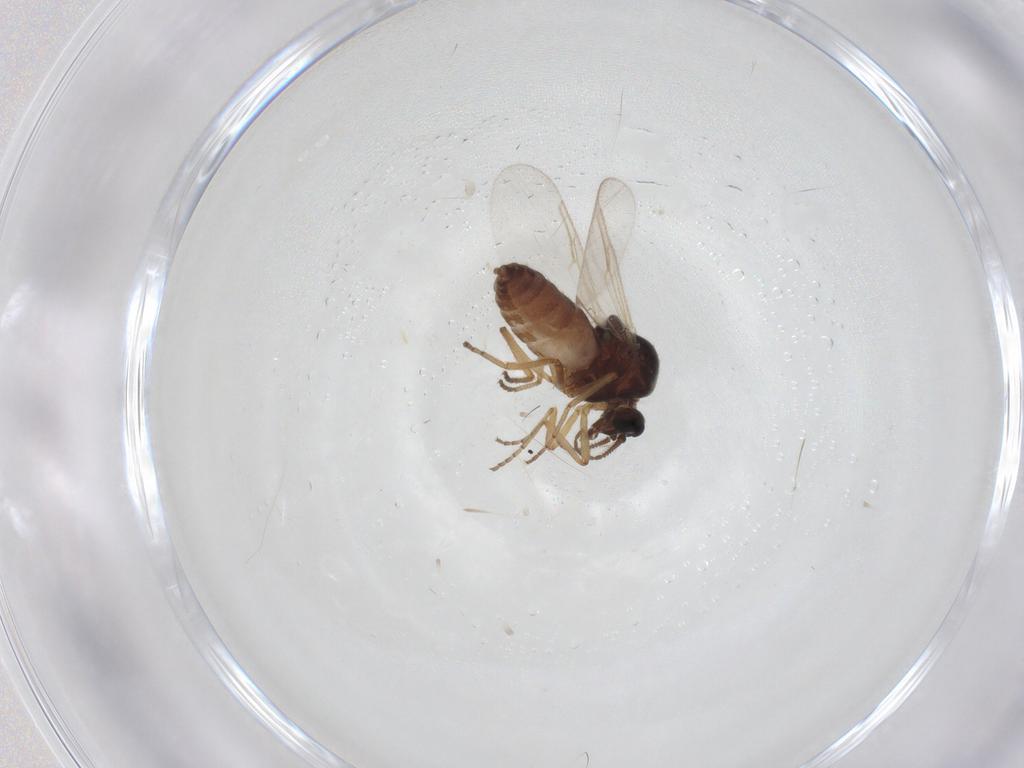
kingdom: Animalia
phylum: Arthropoda
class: Insecta
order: Diptera
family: Ceratopogonidae
